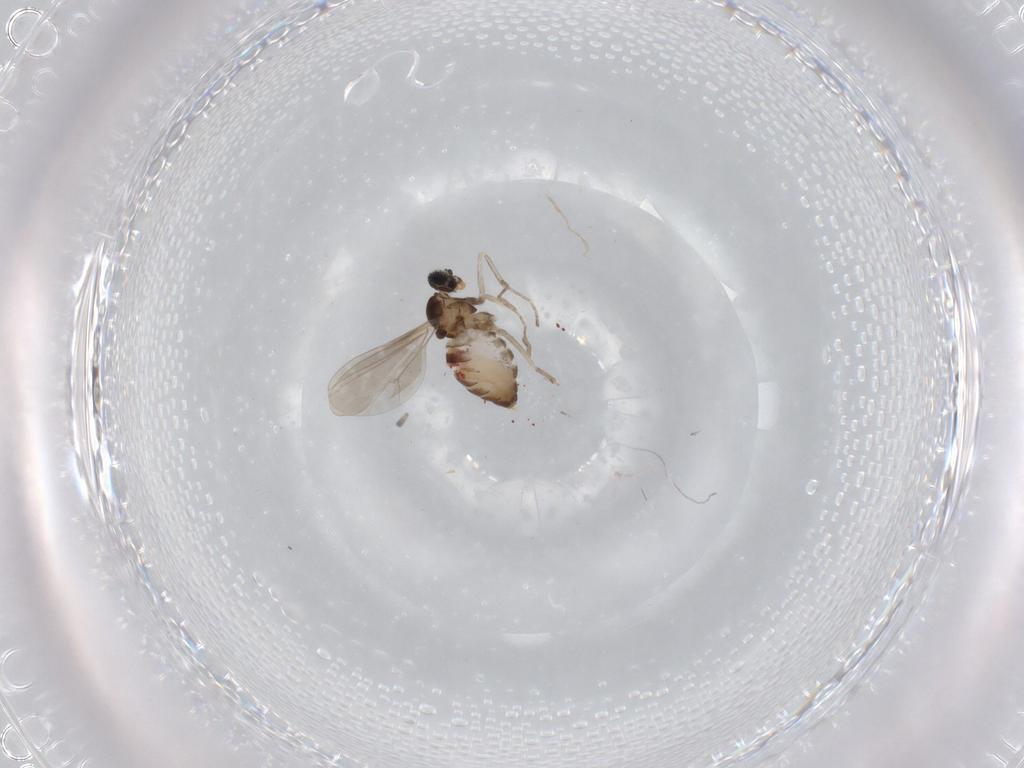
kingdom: Animalia
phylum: Arthropoda
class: Insecta
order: Diptera
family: Cecidomyiidae
